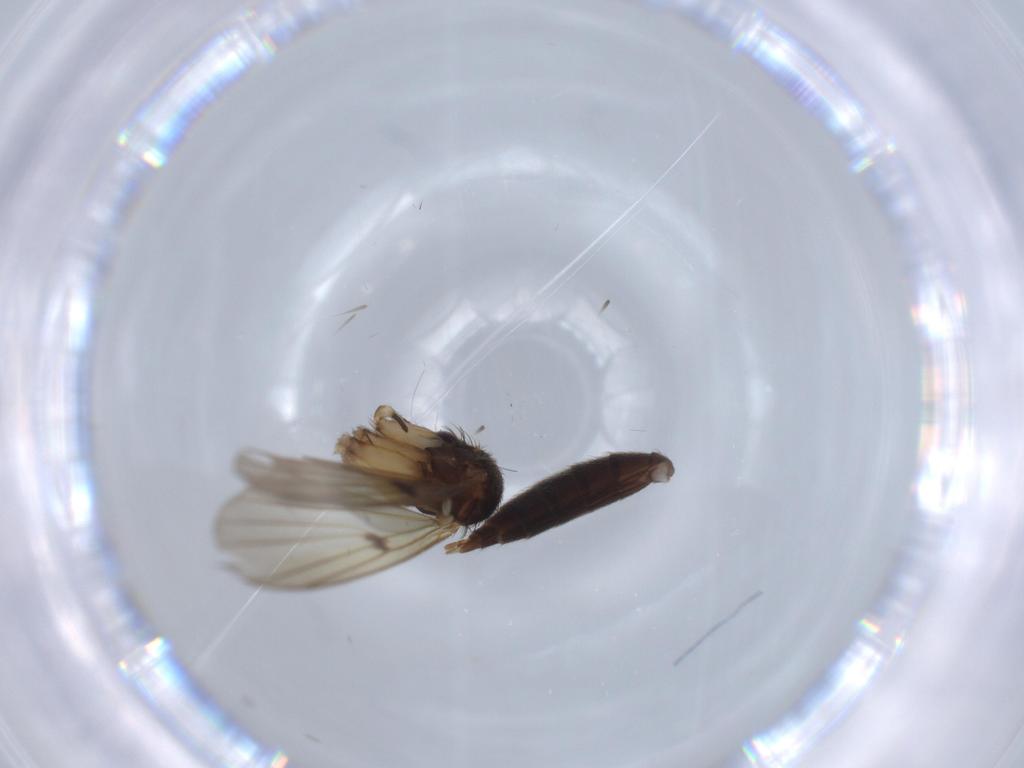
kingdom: Animalia
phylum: Arthropoda
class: Insecta
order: Diptera
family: Limoniidae
